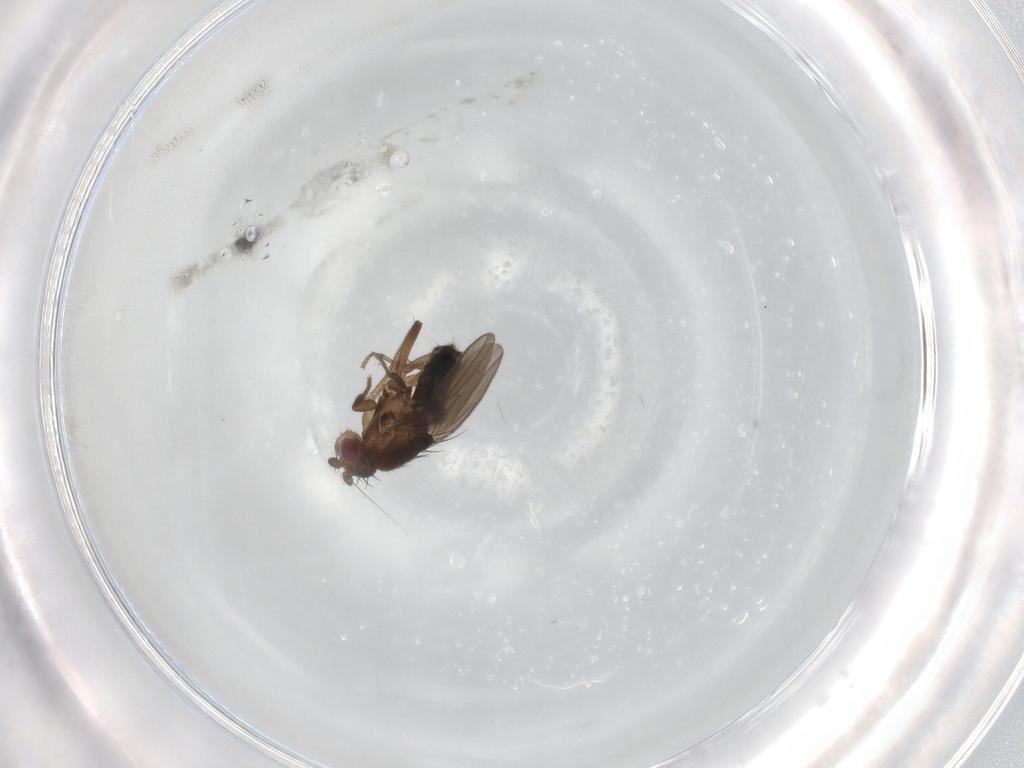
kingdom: Animalia
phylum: Arthropoda
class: Insecta
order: Diptera
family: Sphaeroceridae
